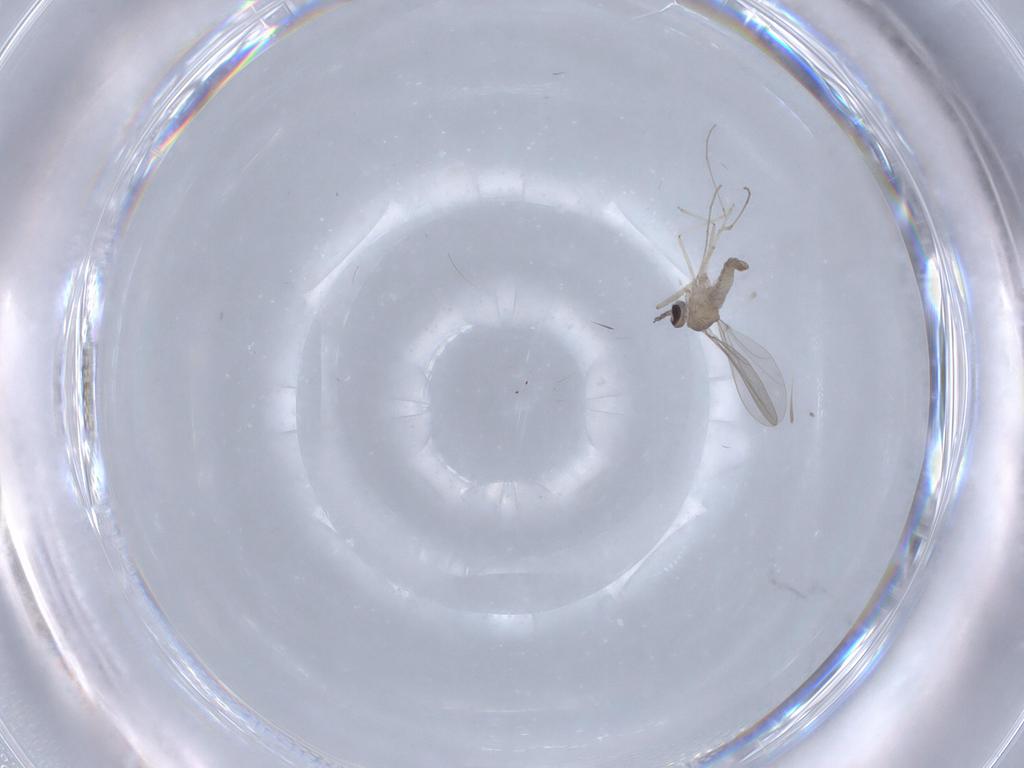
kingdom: Animalia
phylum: Arthropoda
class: Insecta
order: Diptera
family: Cecidomyiidae
